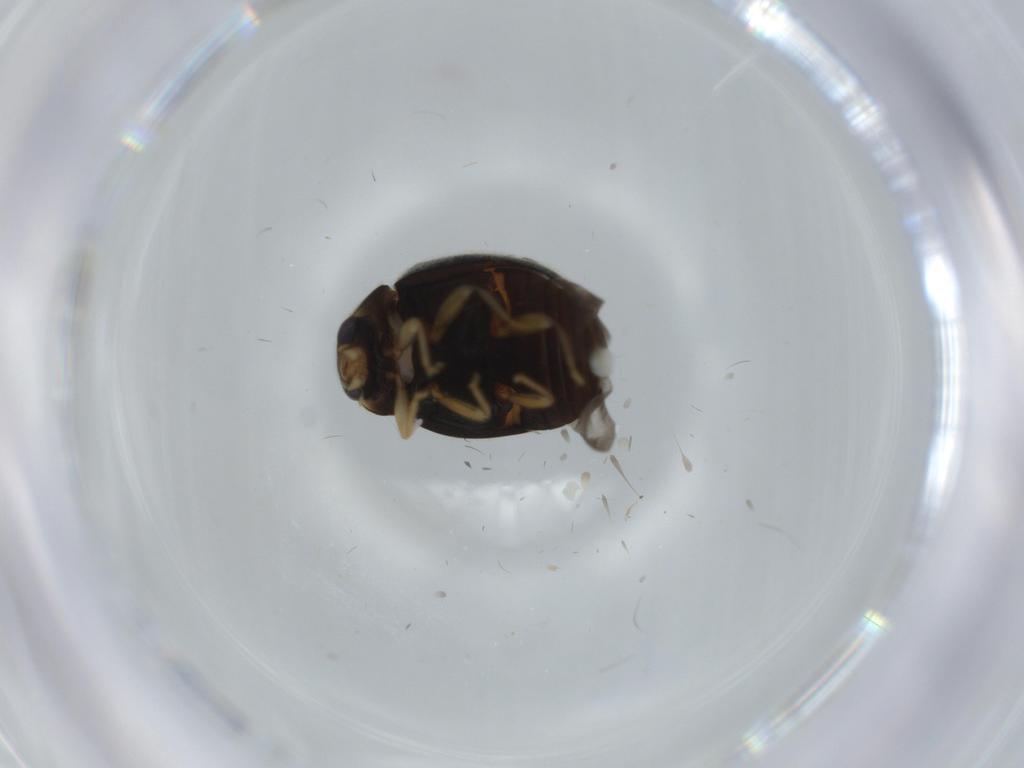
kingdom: Animalia
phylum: Arthropoda
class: Insecta
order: Coleoptera
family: Coccinellidae
